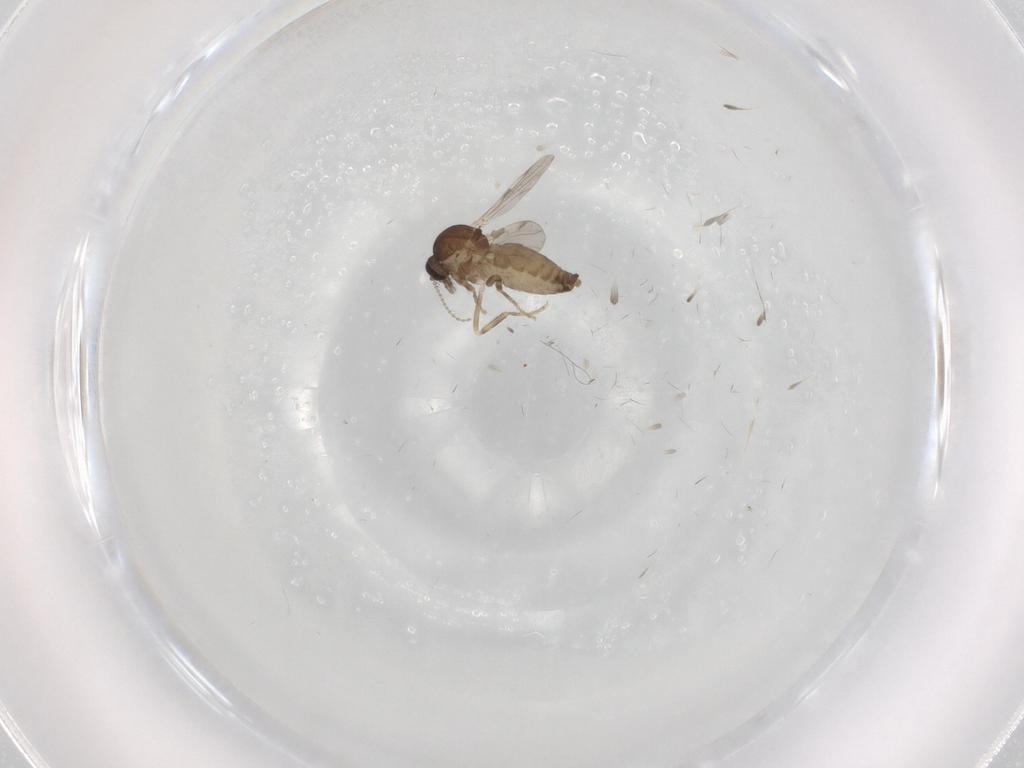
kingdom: Animalia
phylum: Arthropoda
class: Insecta
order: Diptera
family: Cecidomyiidae
